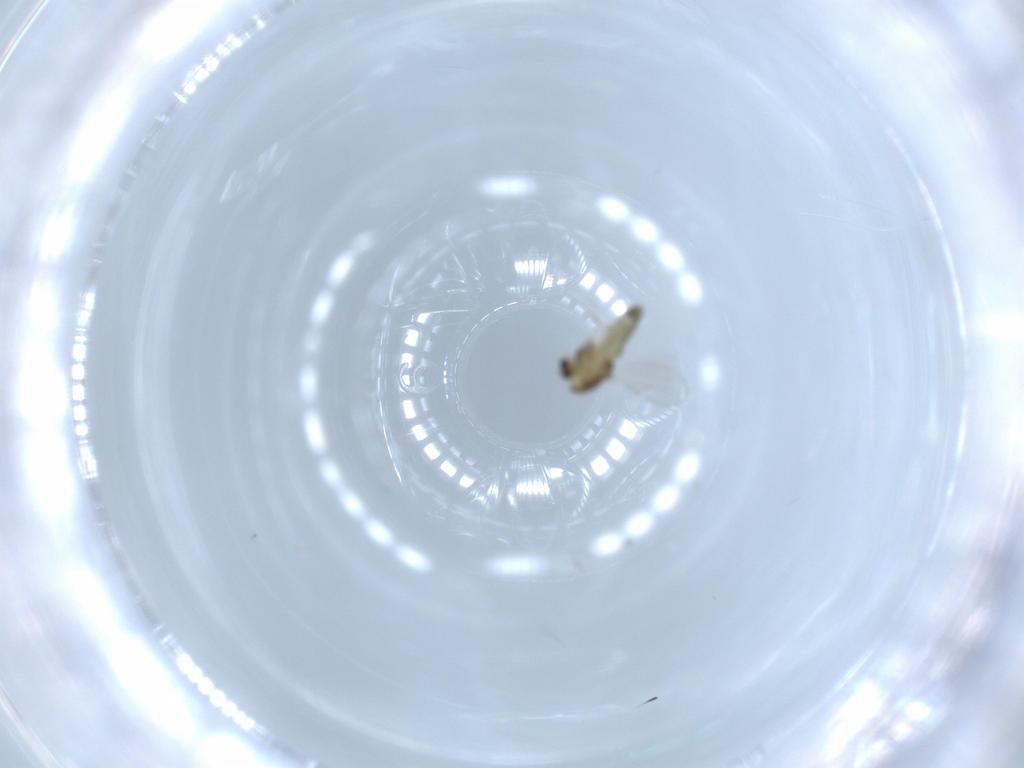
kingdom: Animalia
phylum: Arthropoda
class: Insecta
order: Diptera
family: Chironomidae
